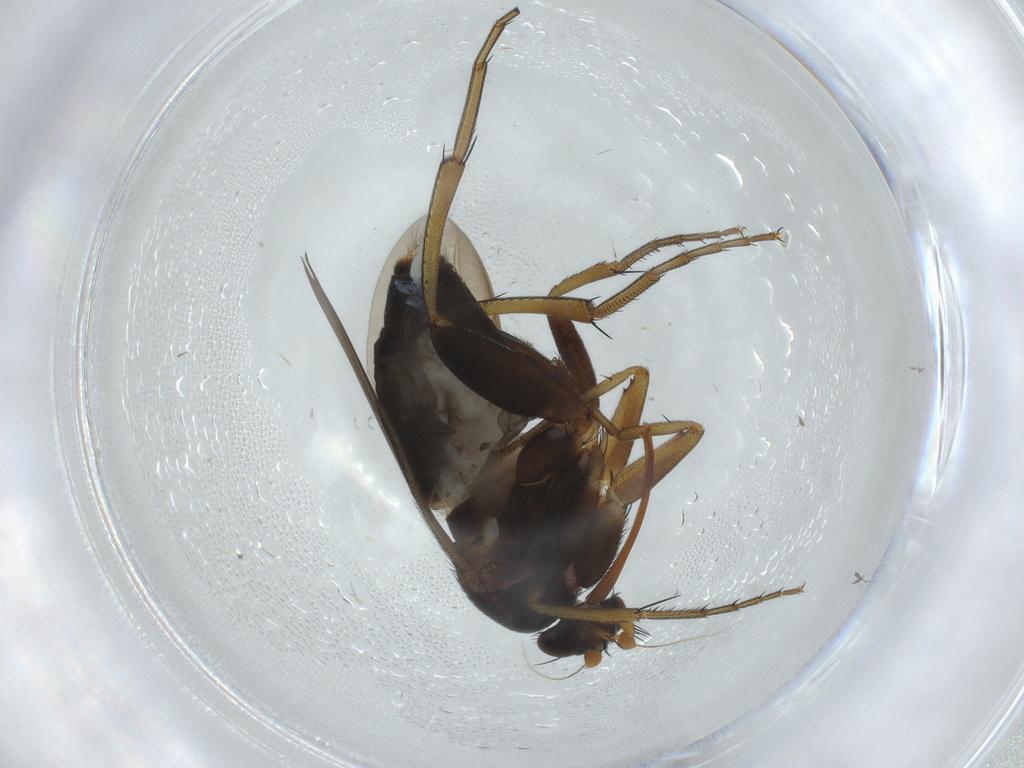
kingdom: Animalia
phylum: Arthropoda
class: Insecta
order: Diptera
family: Phoridae
